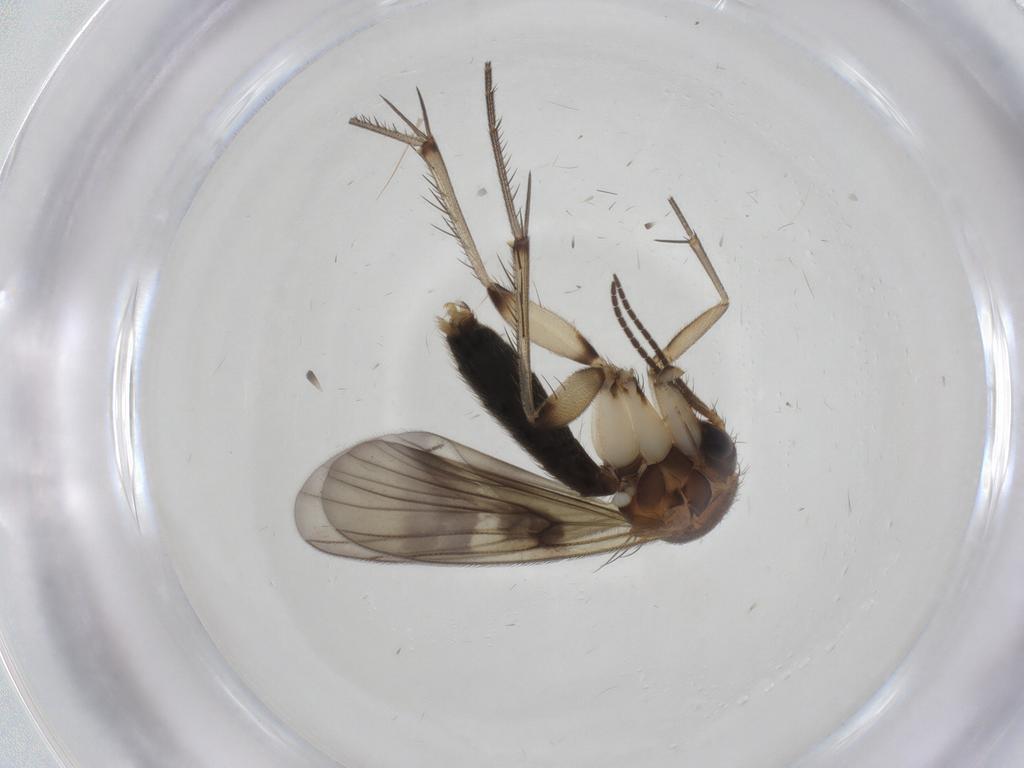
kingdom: Animalia
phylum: Arthropoda
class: Insecta
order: Diptera
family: Mycetophilidae
